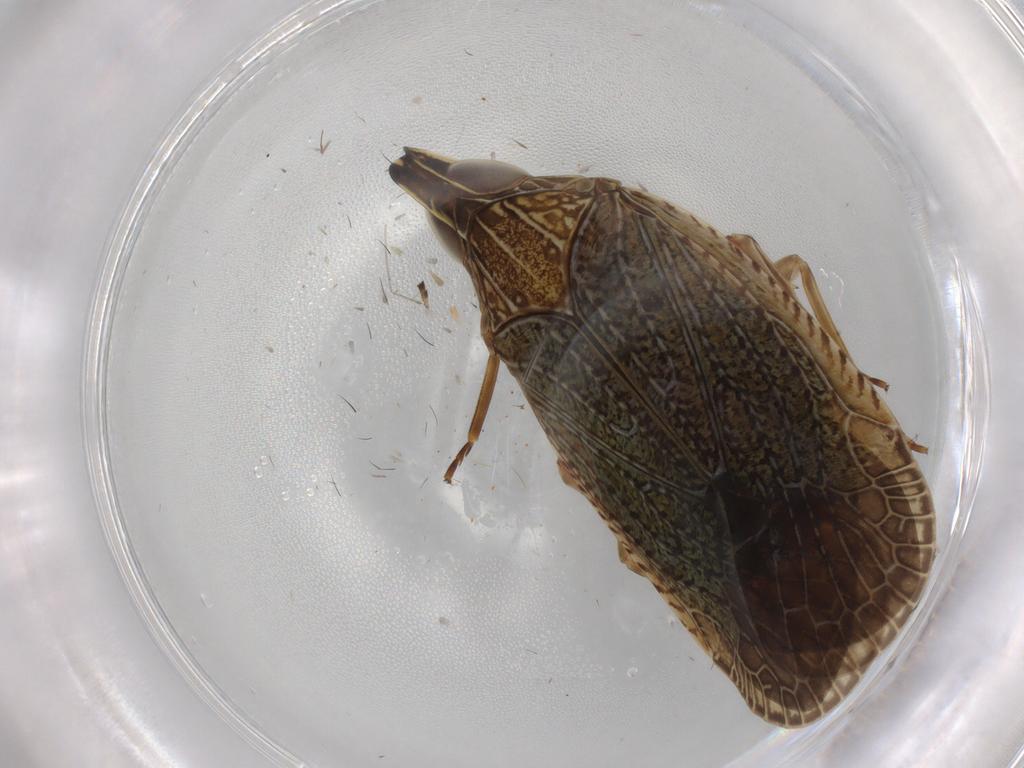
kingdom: Animalia
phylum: Arthropoda
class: Insecta
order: Hemiptera
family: Achilidae
